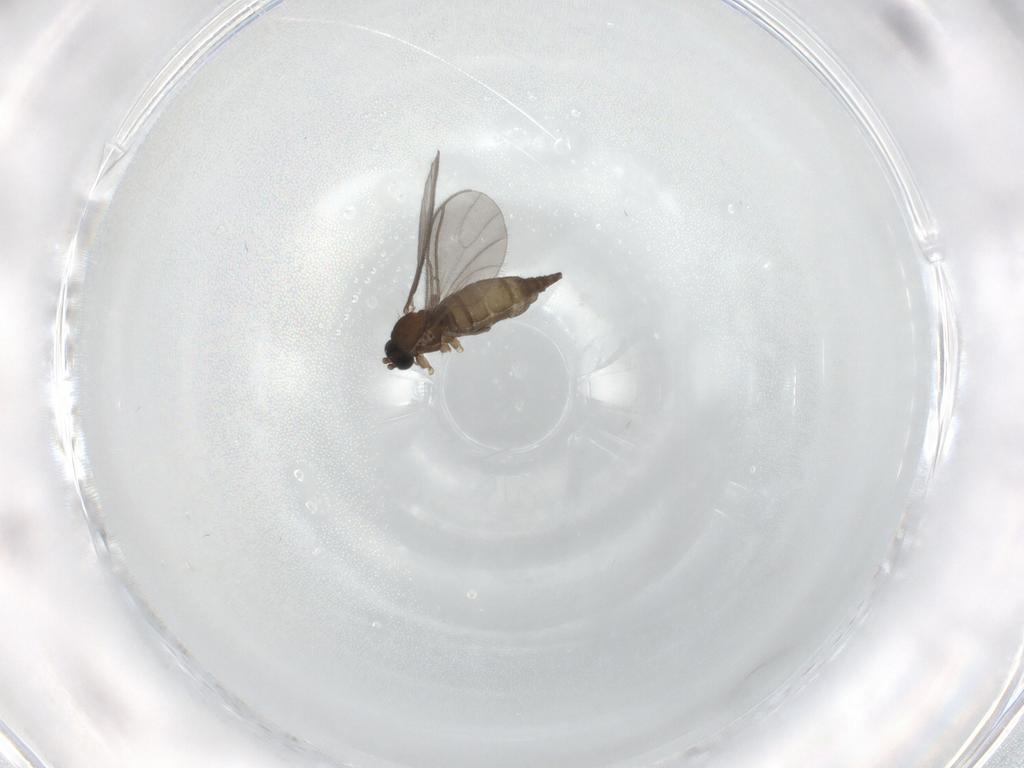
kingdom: Animalia
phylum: Arthropoda
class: Insecta
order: Diptera
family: Sciaridae
